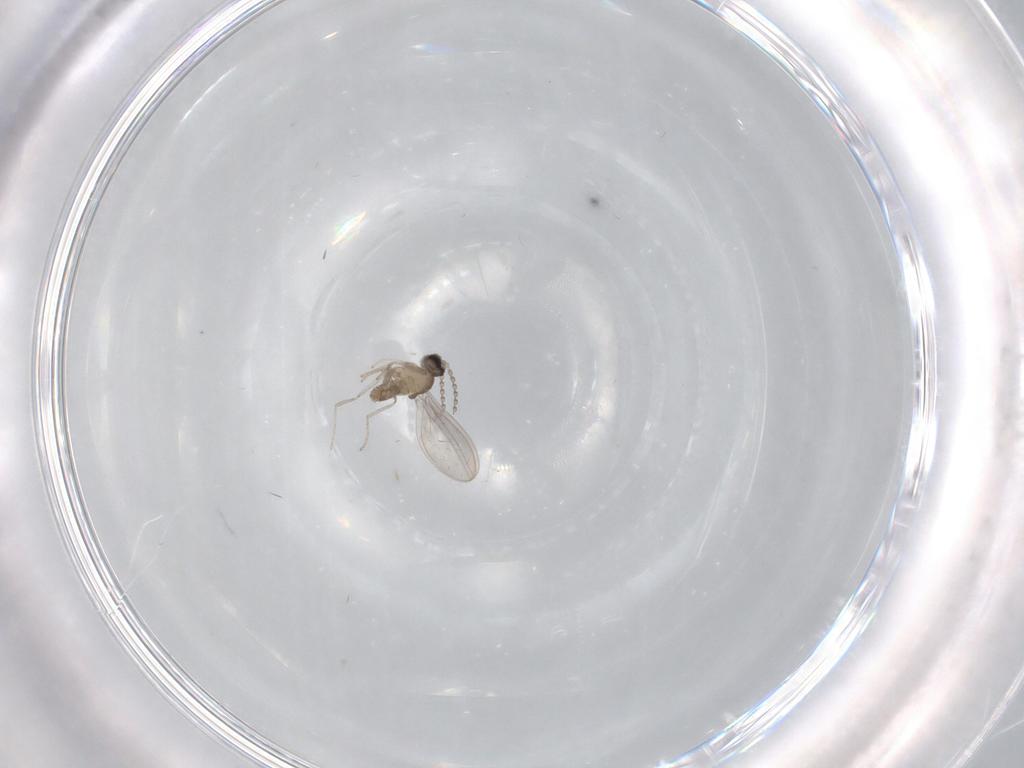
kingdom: Animalia
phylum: Arthropoda
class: Insecta
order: Diptera
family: Cecidomyiidae
